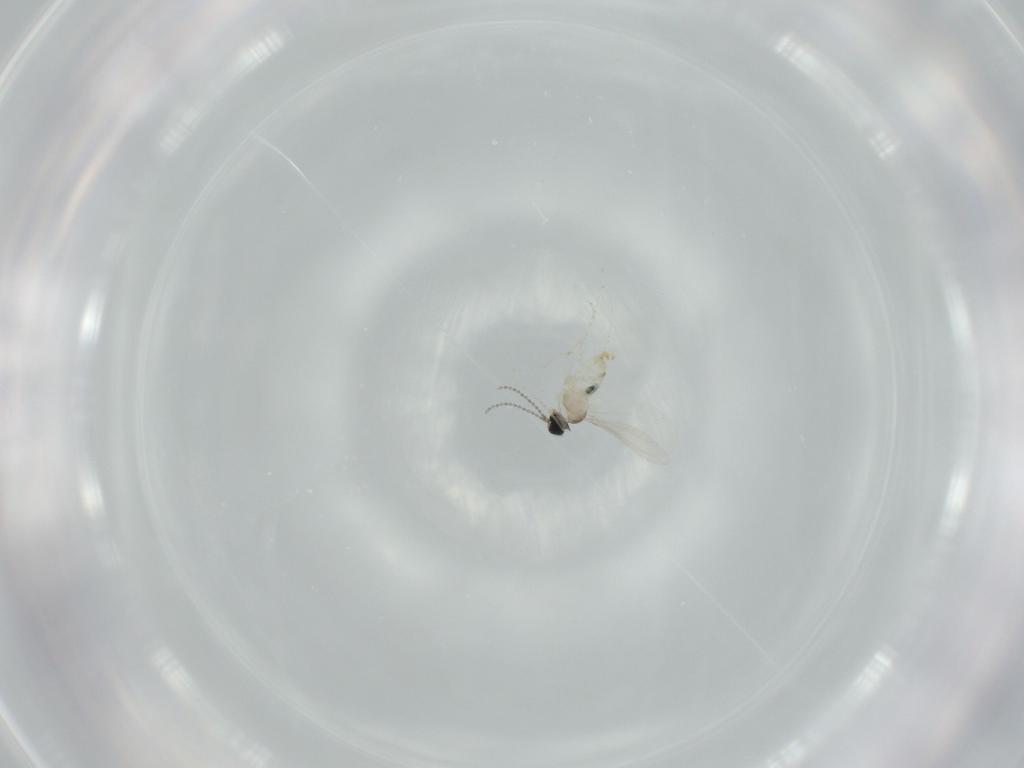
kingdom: Animalia
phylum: Arthropoda
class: Insecta
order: Diptera
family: Cecidomyiidae
